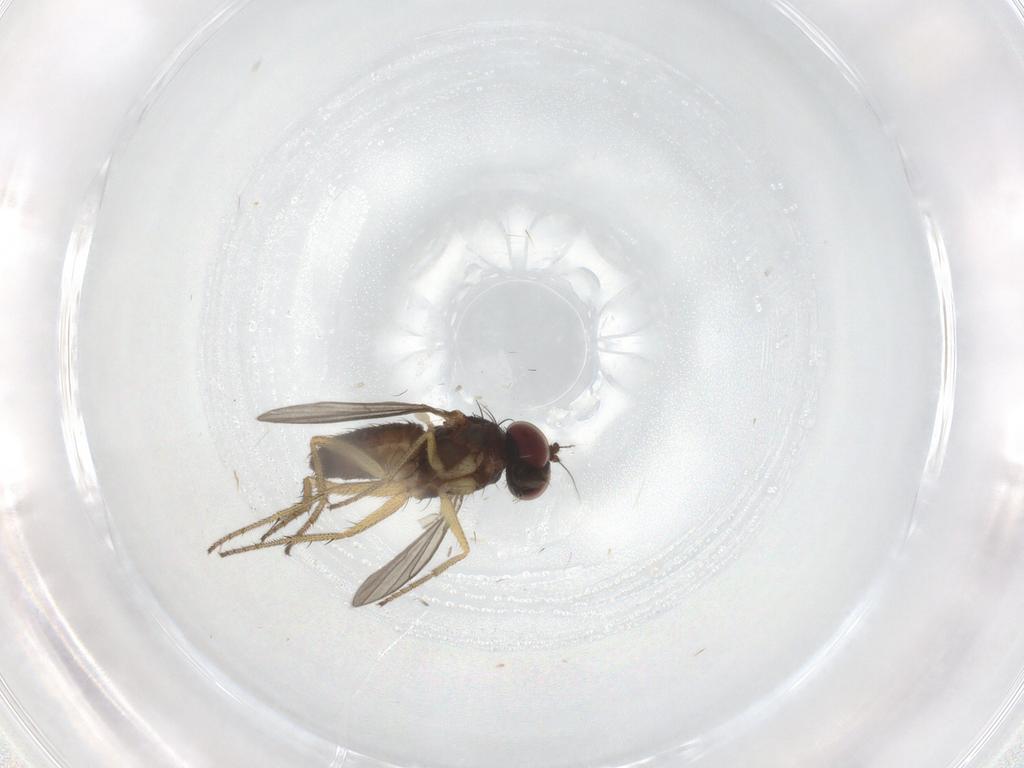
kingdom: Animalia
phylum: Arthropoda
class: Insecta
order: Diptera
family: Dolichopodidae
